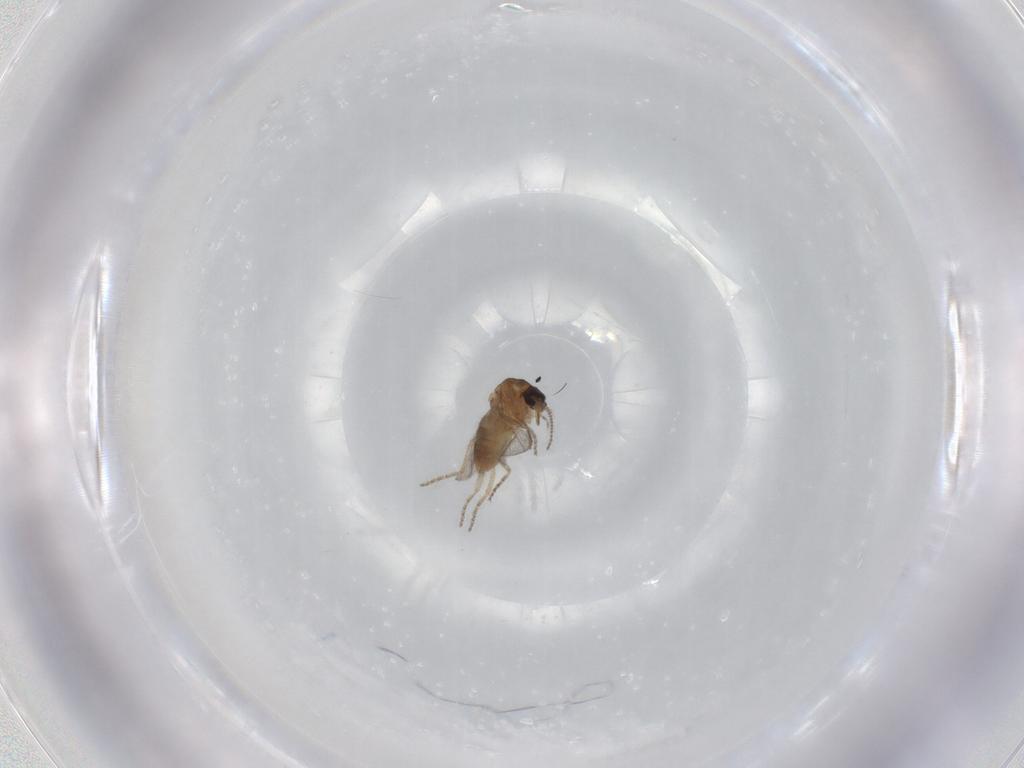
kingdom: Animalia
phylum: Arthropoda
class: Insecta
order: Diptera
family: Ceratopogonidae
